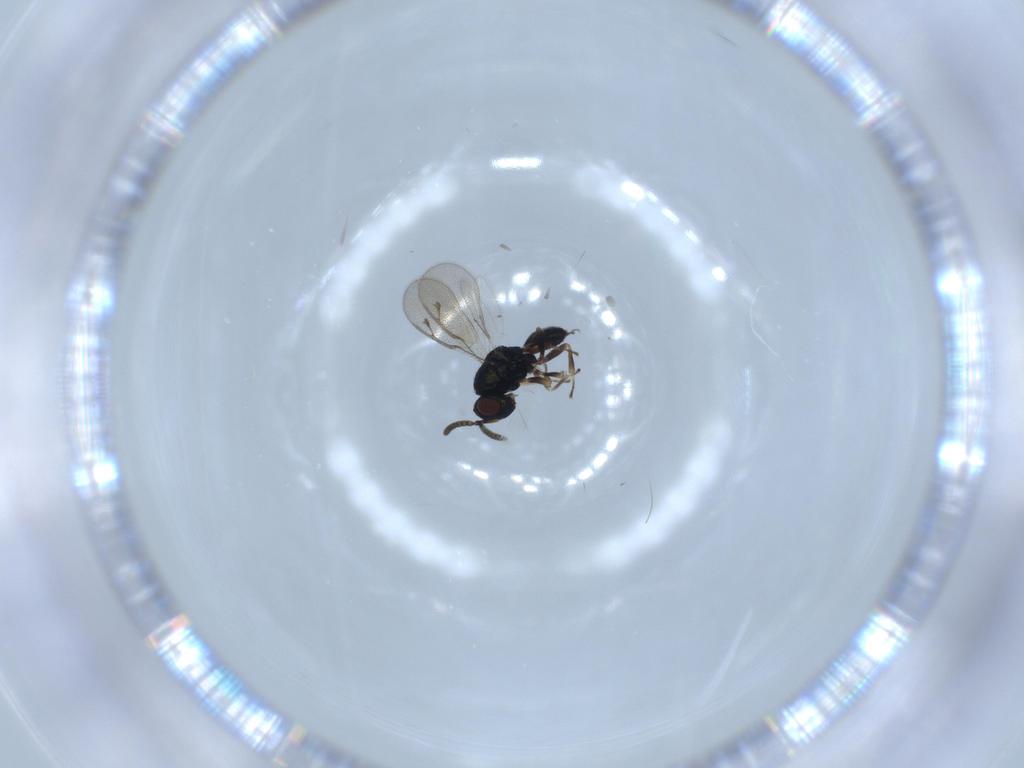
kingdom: Animalia
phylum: Arthropoda
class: Insecta
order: Hymenoptera
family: Pteromalidae
